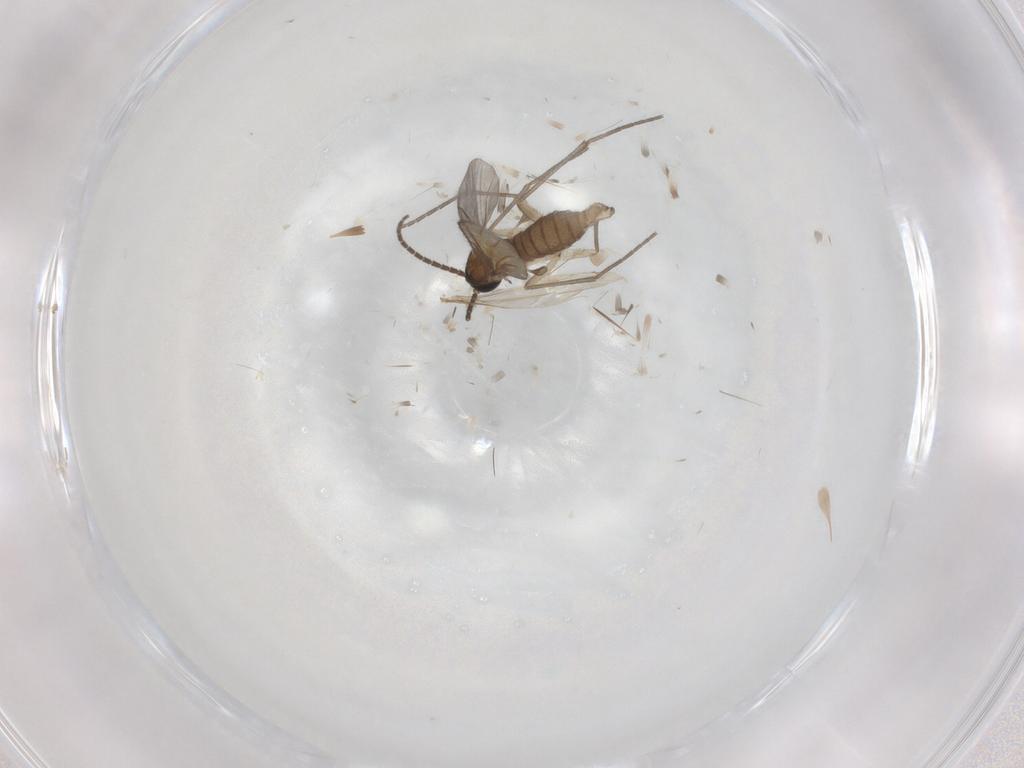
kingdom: Animalia
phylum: Arthropoda
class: Insecta
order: Diptera
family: Sciaridae
